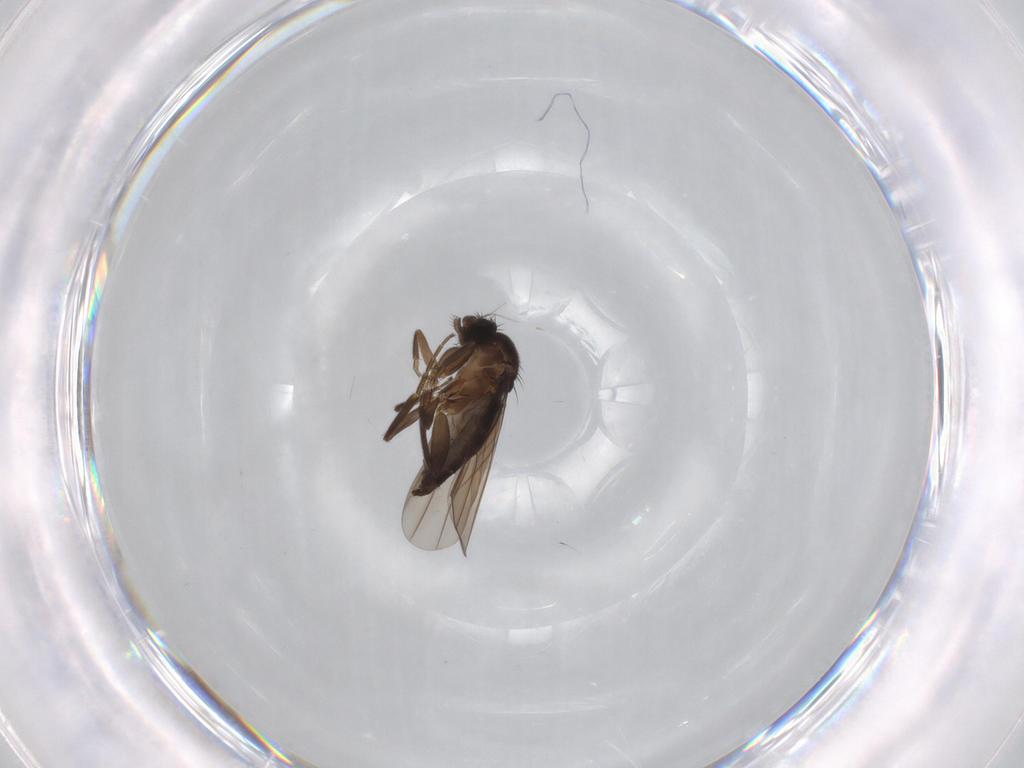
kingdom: Animalia
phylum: Arthropoda
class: Insecta
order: Diptera
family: Phoridae
